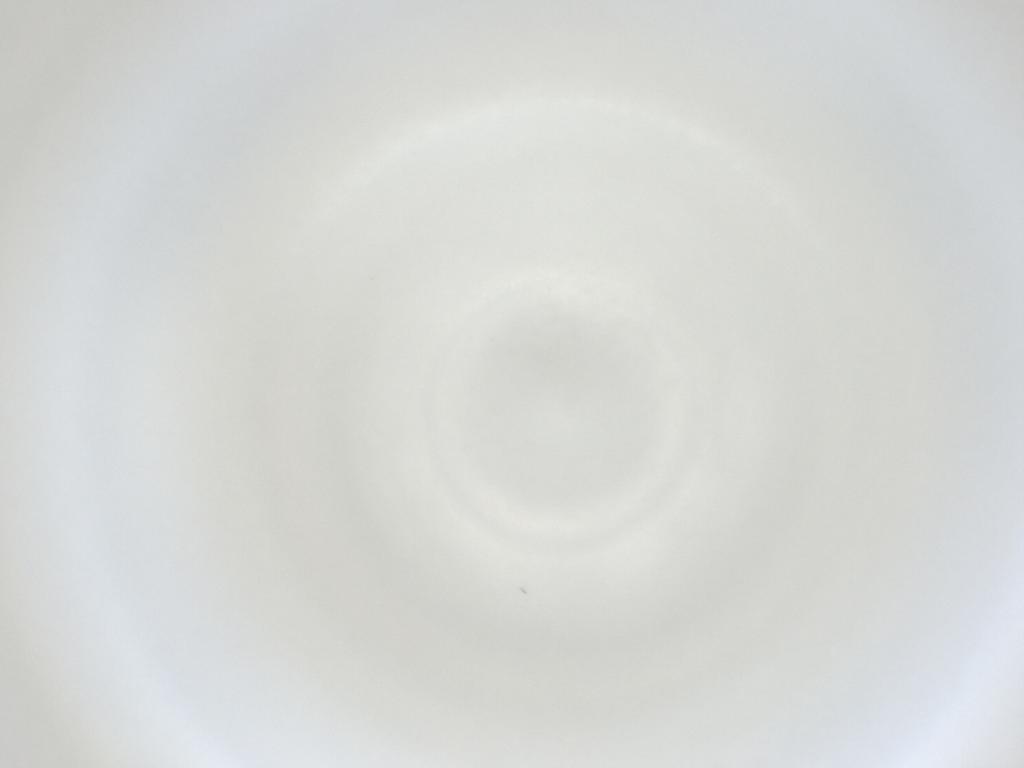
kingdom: Animalia
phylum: Arthropoda
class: Insecta
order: Diptera
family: Cecidomyiidae
